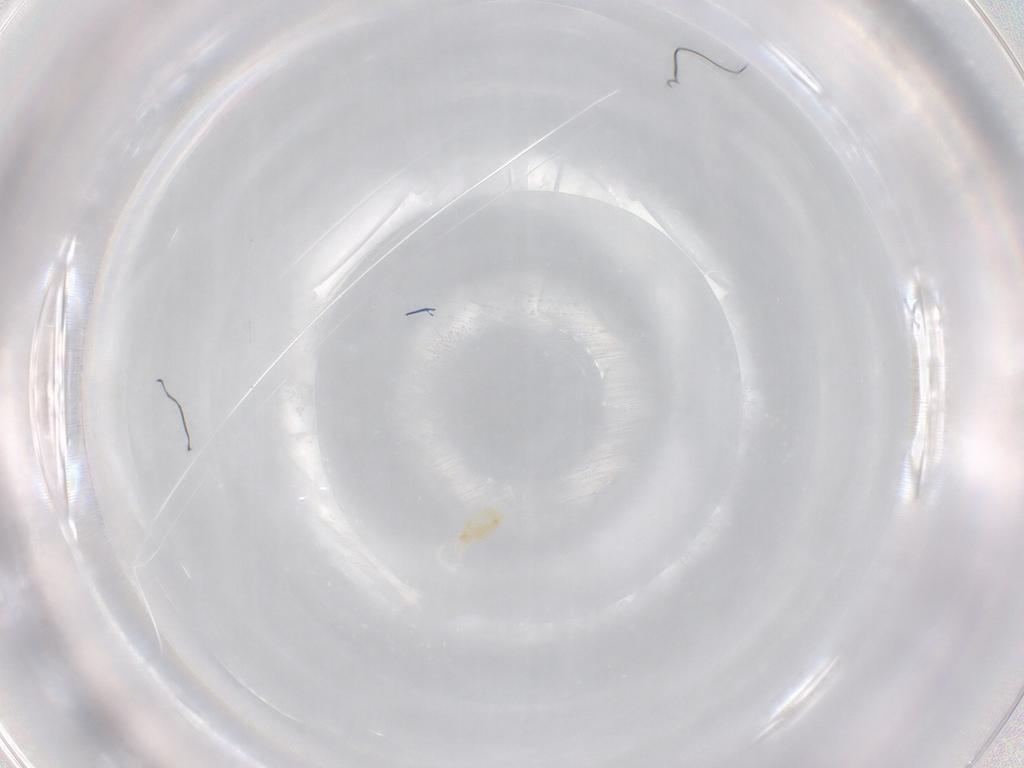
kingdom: Animalia
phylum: Arthropoda
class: Arachnida
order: Trombidiformes
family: Eupodidae
